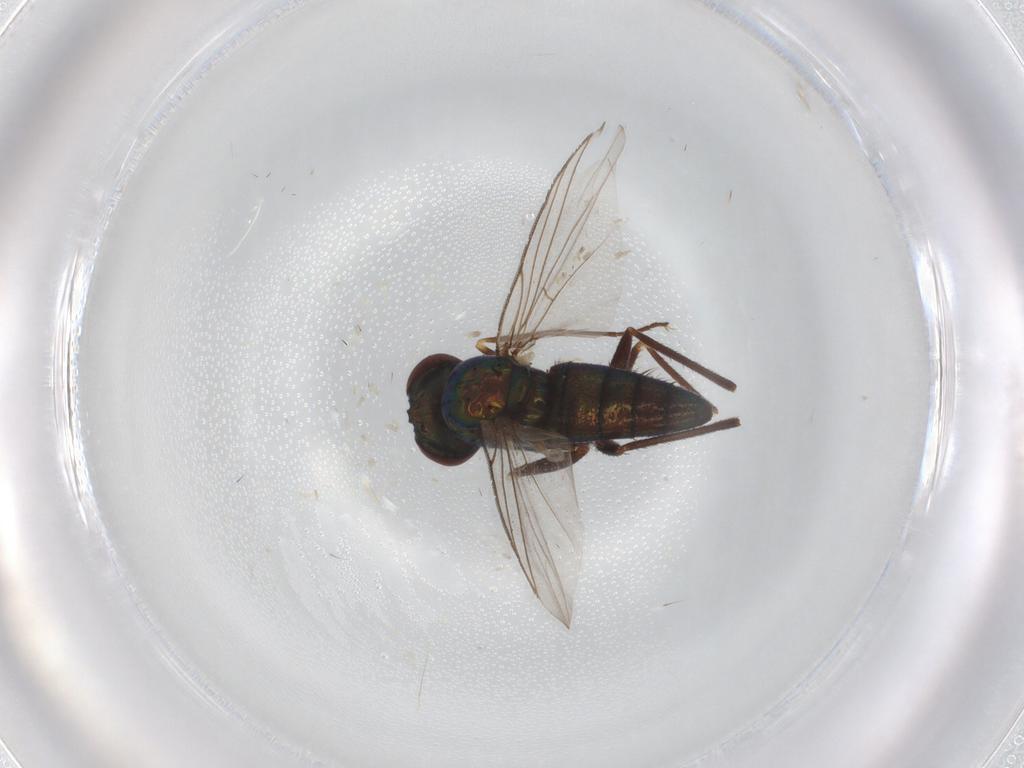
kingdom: Animalia
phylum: Arthropoda
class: Insecta
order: Diptera
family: Dolichopodidae
